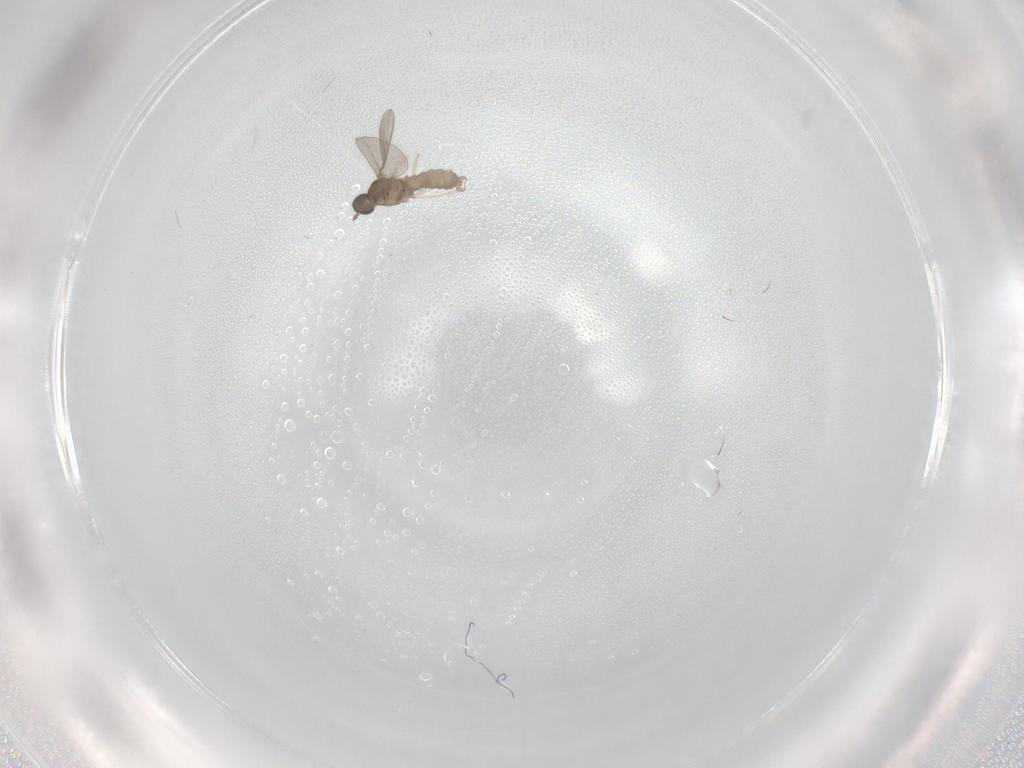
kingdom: Animalia
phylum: Arthropoda
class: Insecta
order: Diptera
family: Tabanidae
